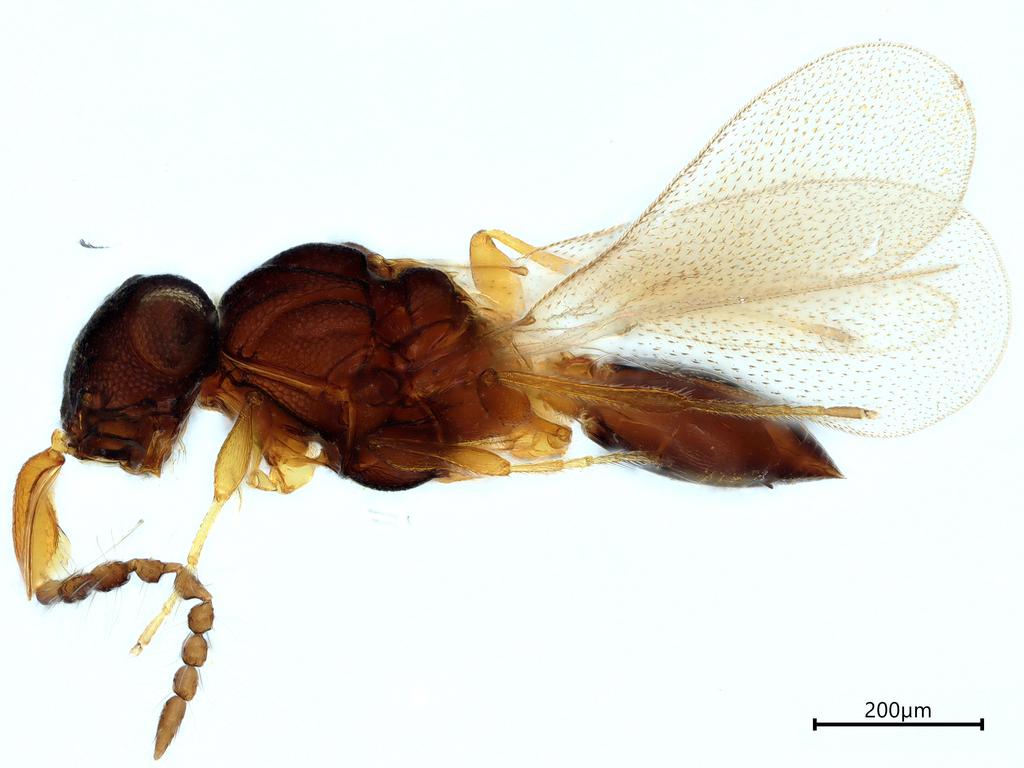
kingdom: Animalia
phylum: Arthropoda
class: Insecta
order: Hymenoptera
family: Platygastridae
